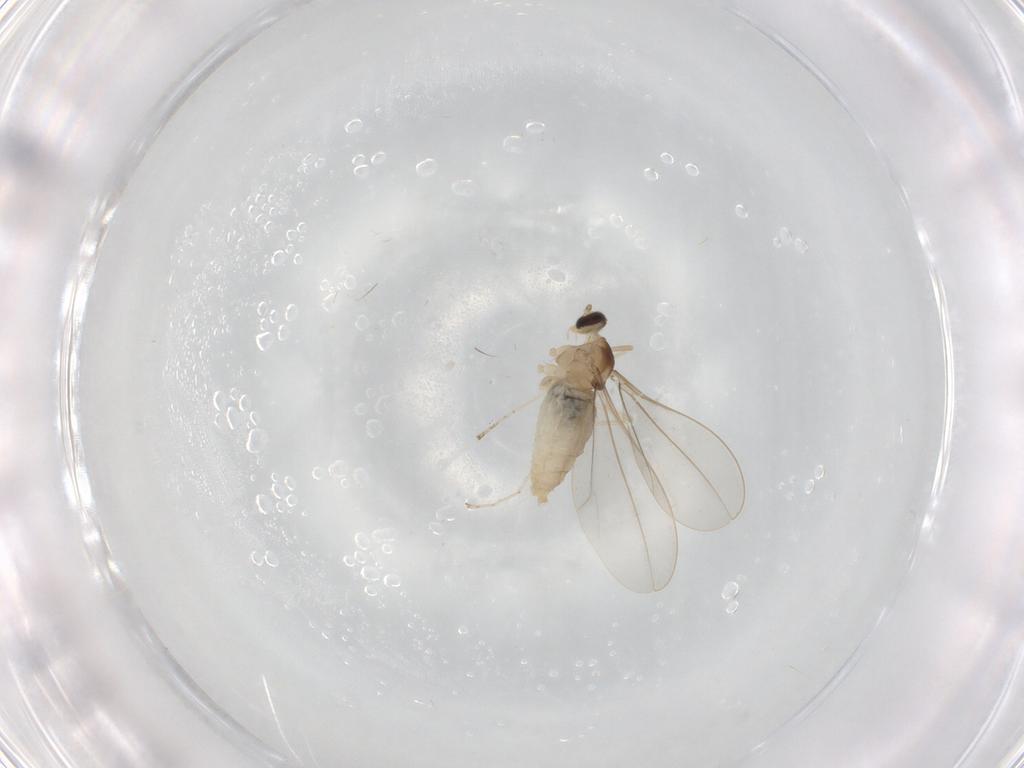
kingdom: Animalia
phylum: Arthropoda
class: Insecta
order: Diptera
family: Cecidomyiidae
